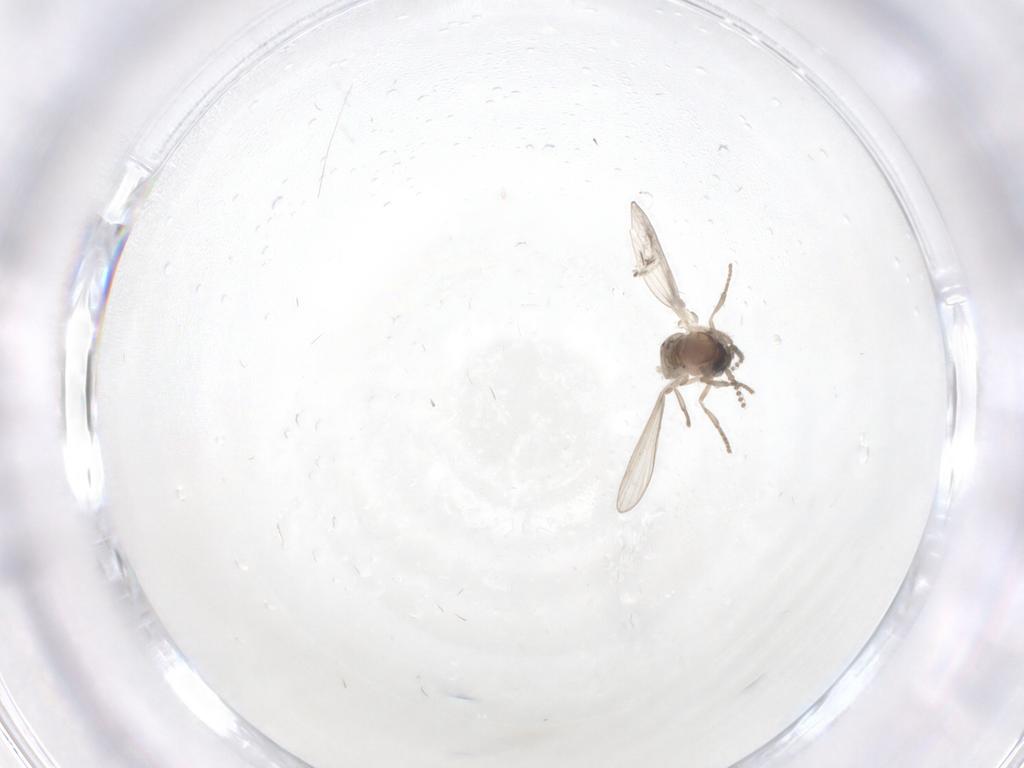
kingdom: Animalia
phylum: Arthropoda
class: Insecta
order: Diptera
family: Chironomidae
